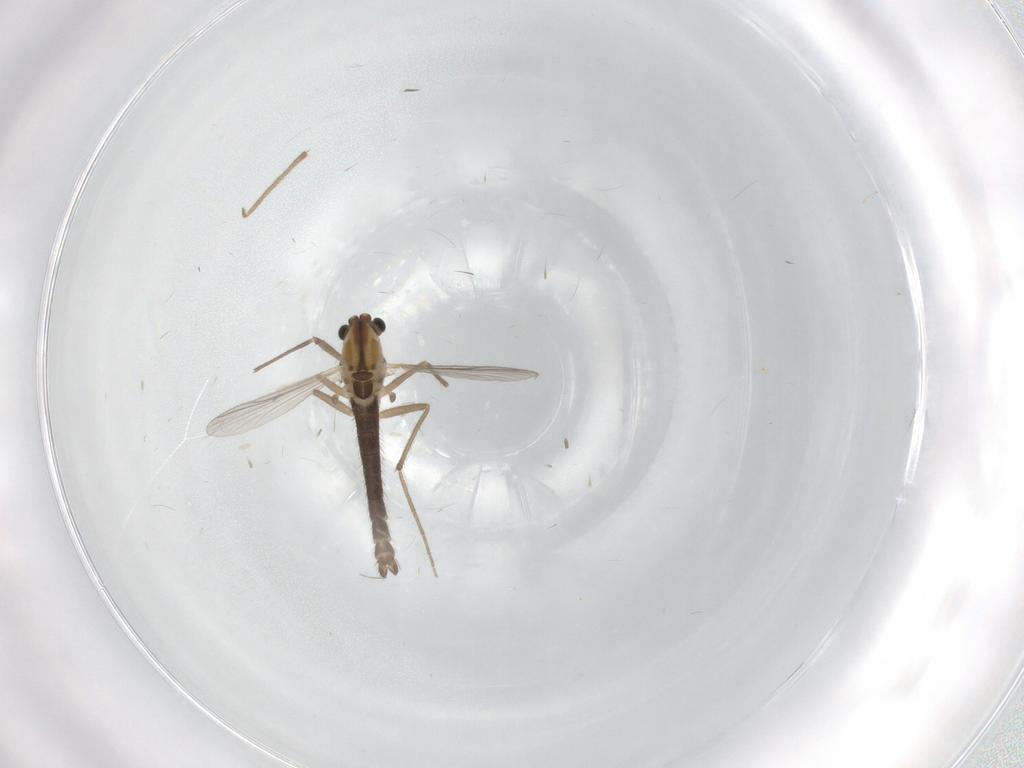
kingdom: Animalia
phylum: Arthropoda
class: Insecta
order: Diptera
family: Chironomidae
